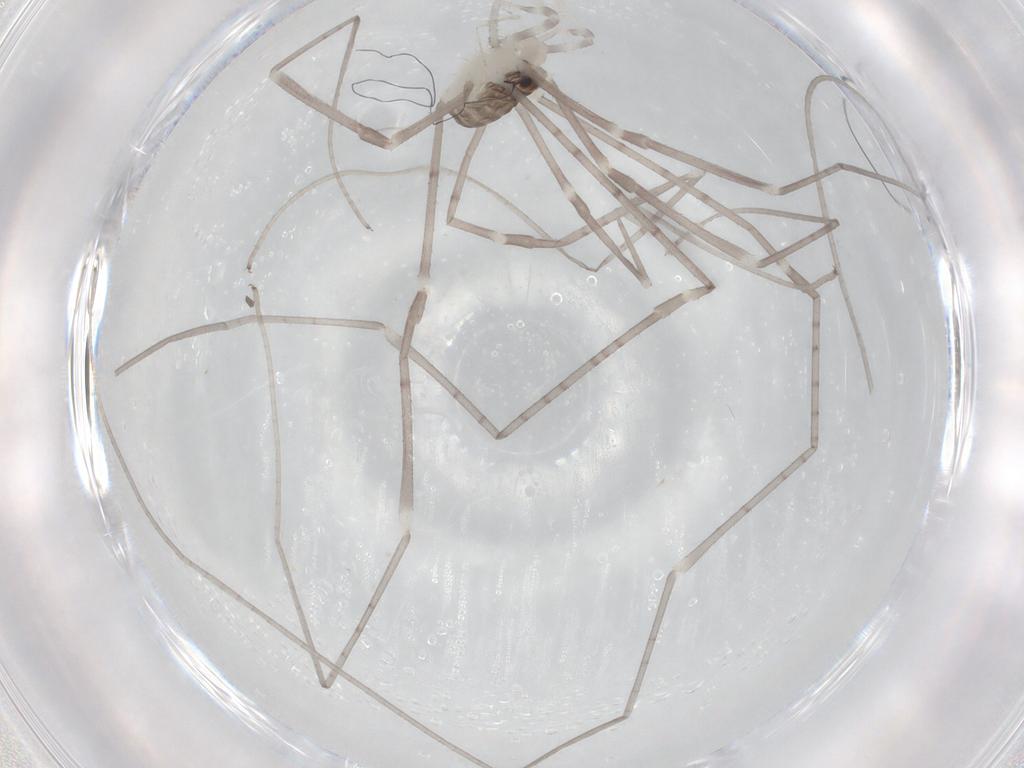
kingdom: Animalia
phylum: Arthropoda
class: Arachnida
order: Opiliones
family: Sclerosomatidae
